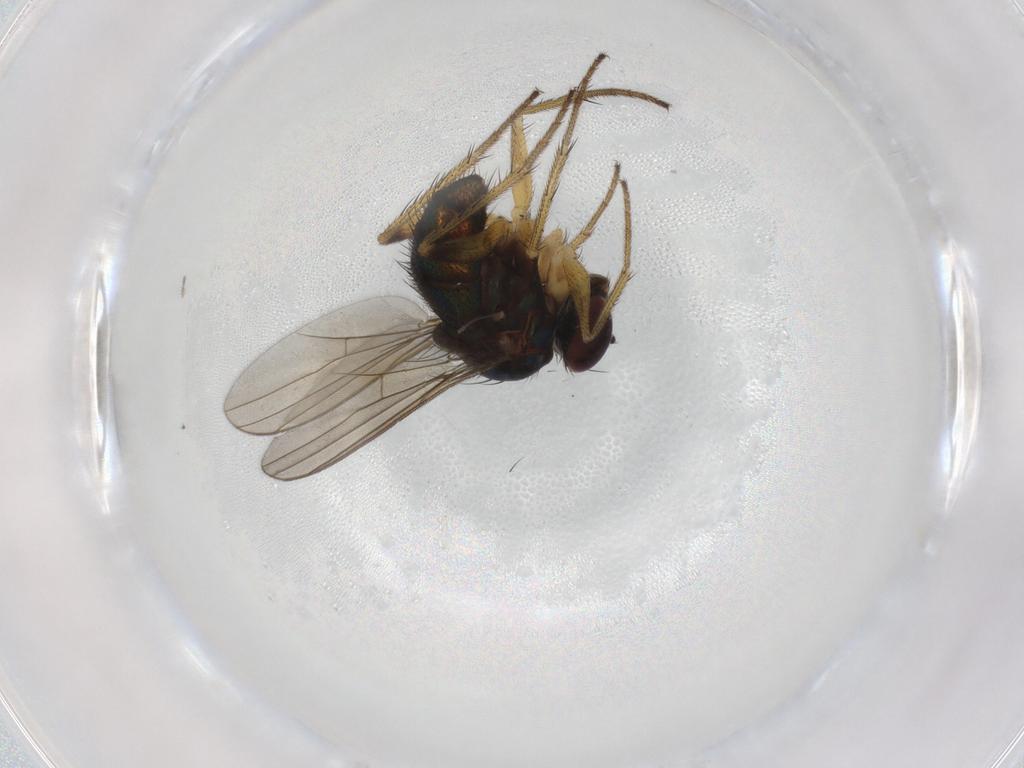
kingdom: Animalia
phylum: Arthropoda
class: Insecta
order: Diptera
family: Dolichopodidae
